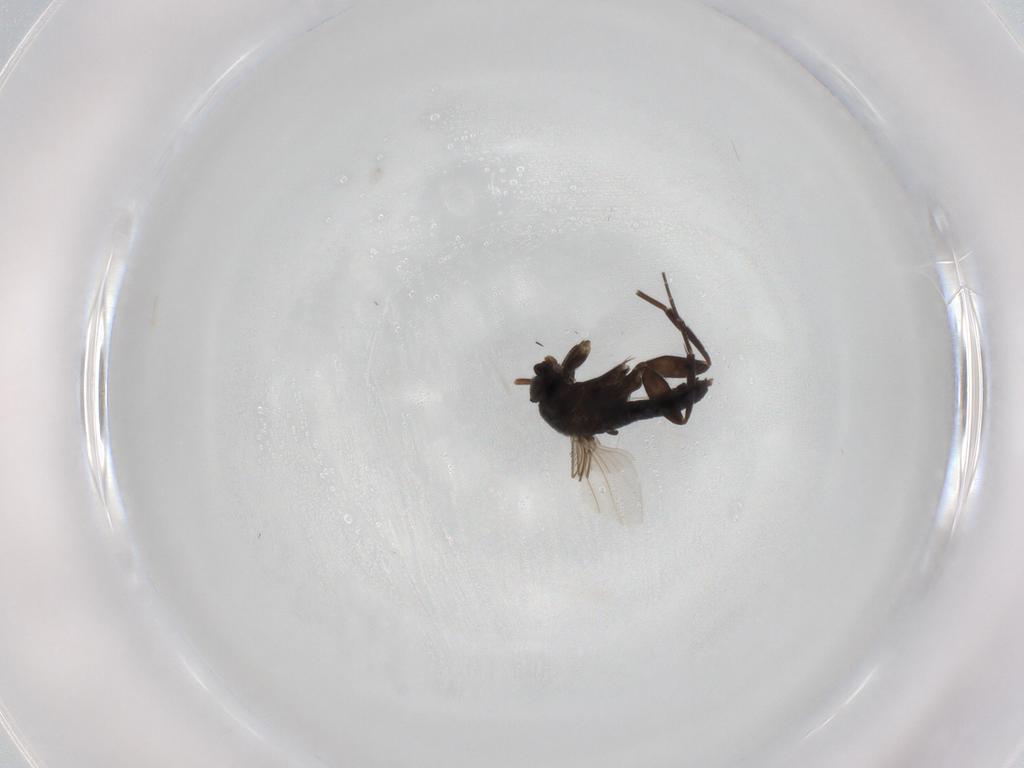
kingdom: Animalia
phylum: Arthropoda
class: Insecta
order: Diptera
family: Phoridae
